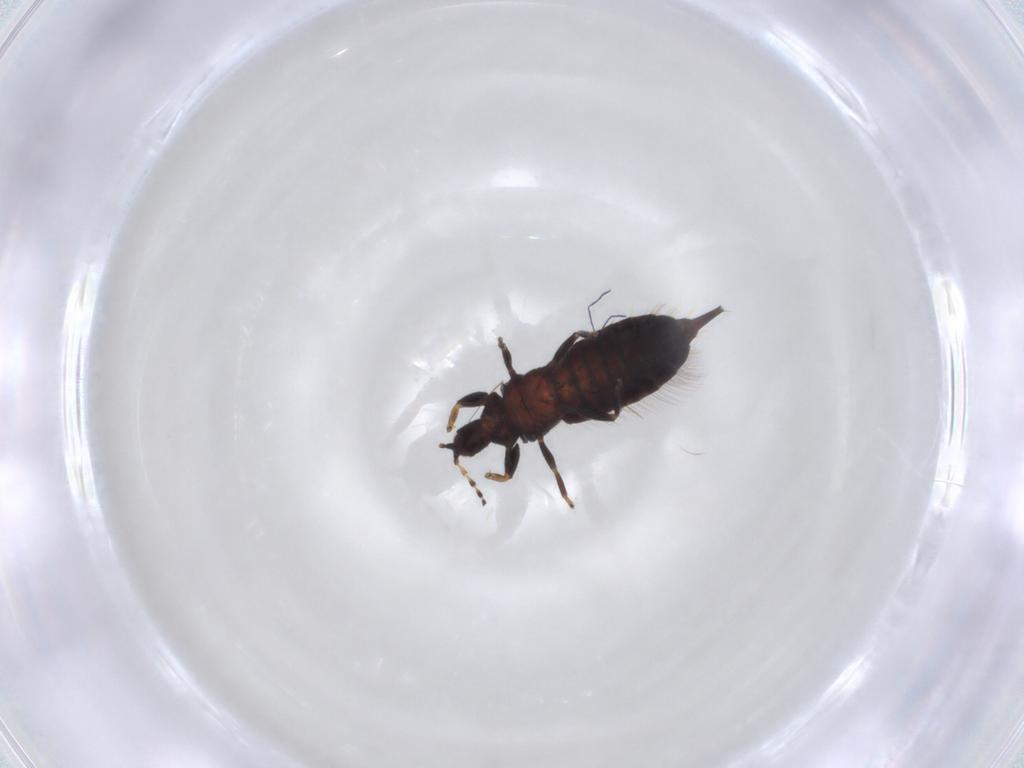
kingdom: Animalia
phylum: Arthropoda
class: Insecta
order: Thysanoptera
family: Phlaeothripidae
